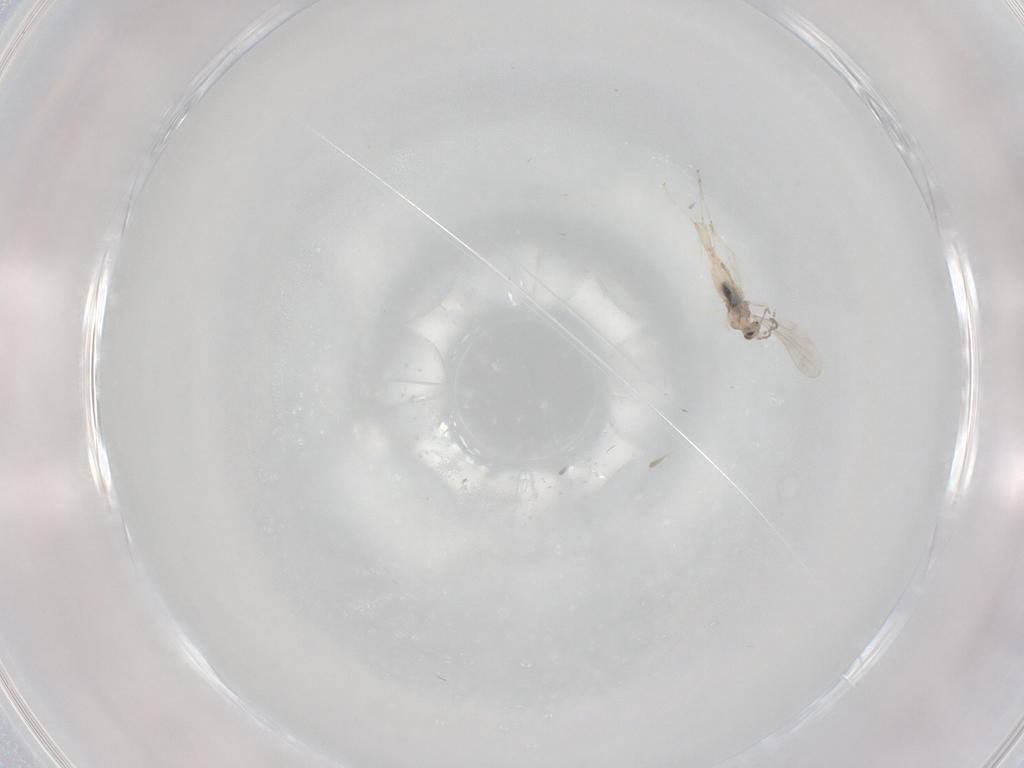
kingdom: Animalia
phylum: Arthropoda
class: Insecta
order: Diptera
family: Cecidomyiidae
